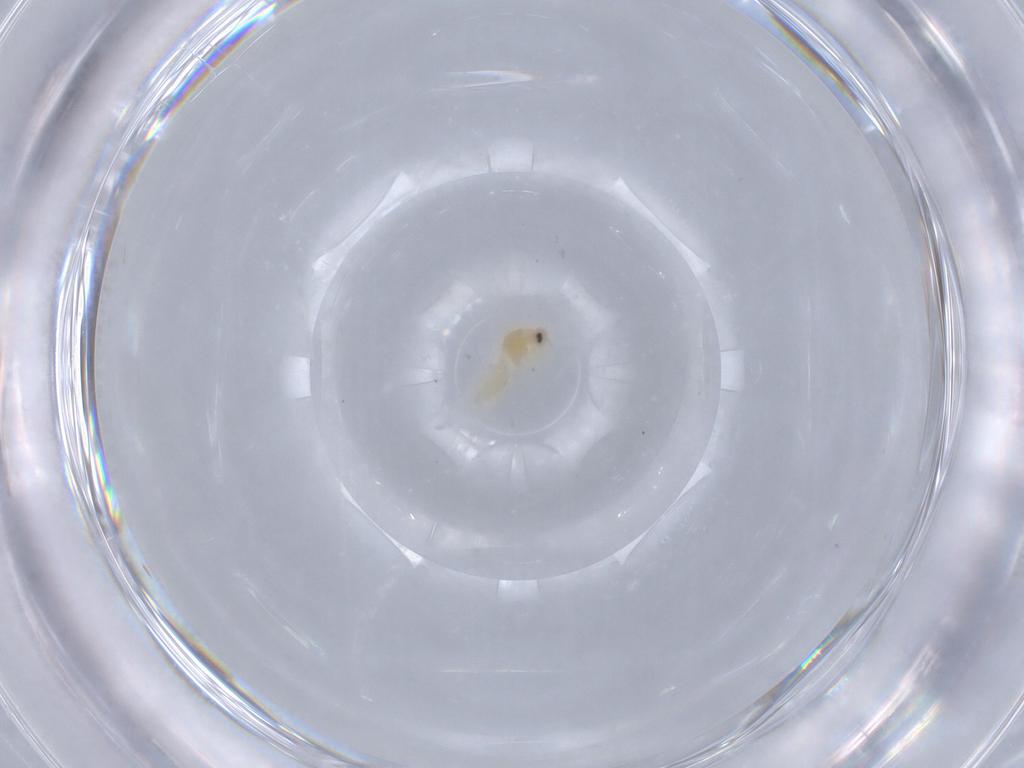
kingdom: Animalia
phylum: Arthropoda
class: Insecta
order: Hemiptera
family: Aleyrodidae
